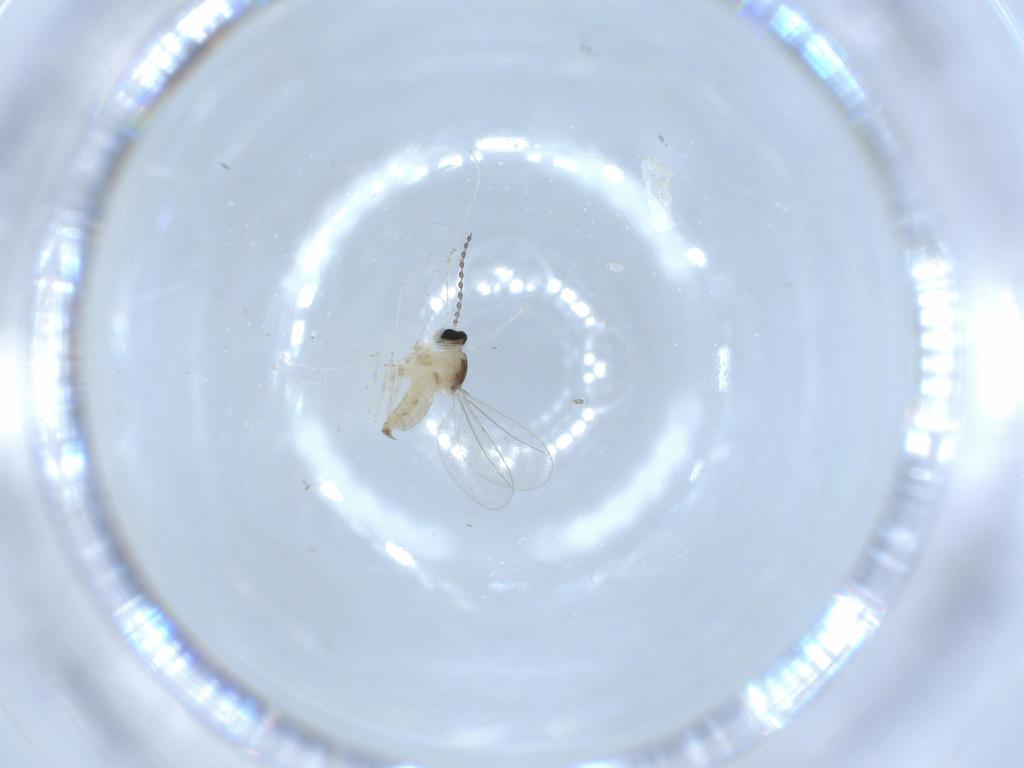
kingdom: Animalia
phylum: Arthropoda
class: Insecta
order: Diptera
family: Cecidomyiidae
